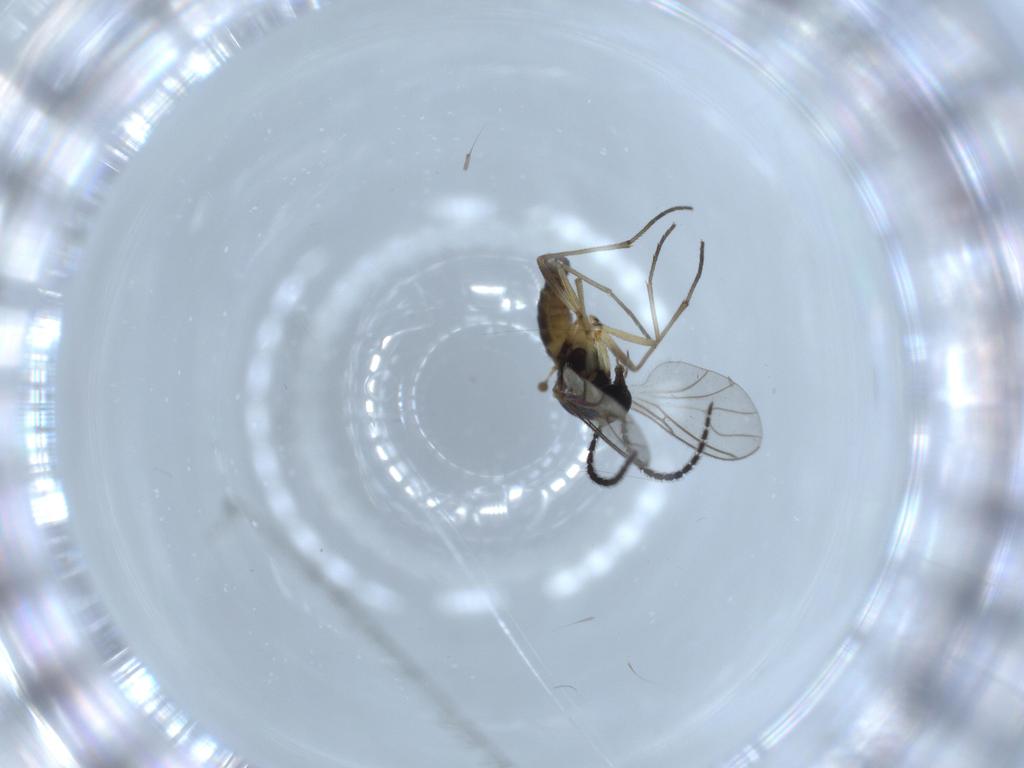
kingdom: Animalia
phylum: Arthropoda
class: Insecta
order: Diptera
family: Sciaridae
